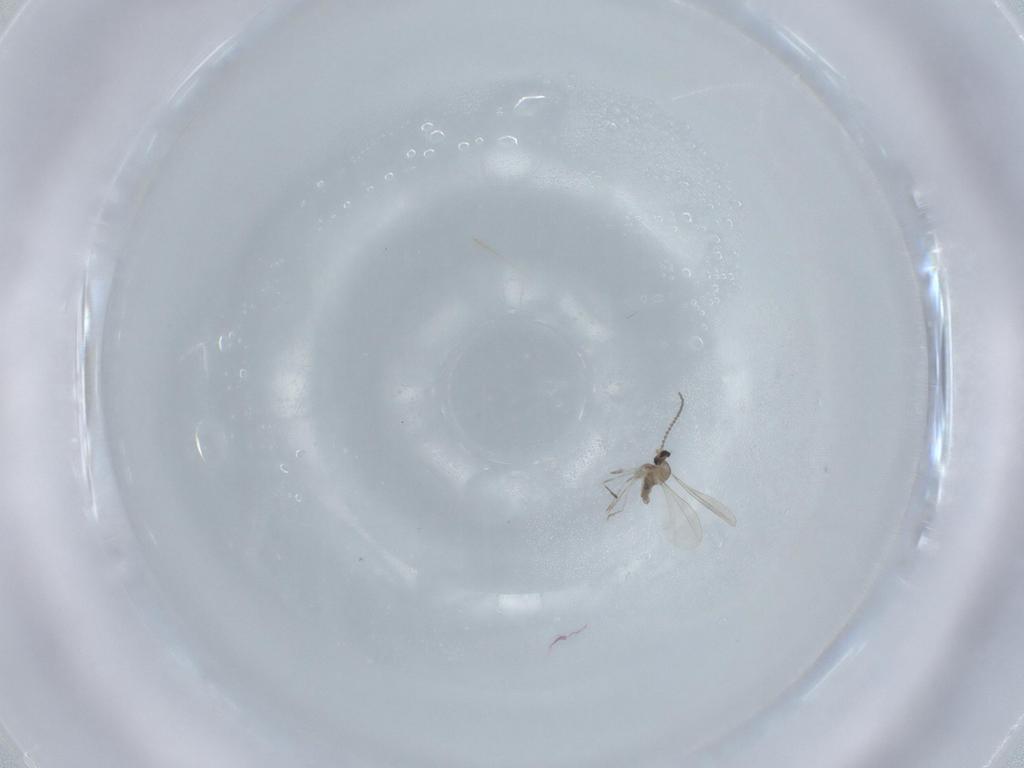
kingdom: Animalia
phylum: Arthropoda
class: Insecta
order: Diptera
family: Cecidomyiidae
